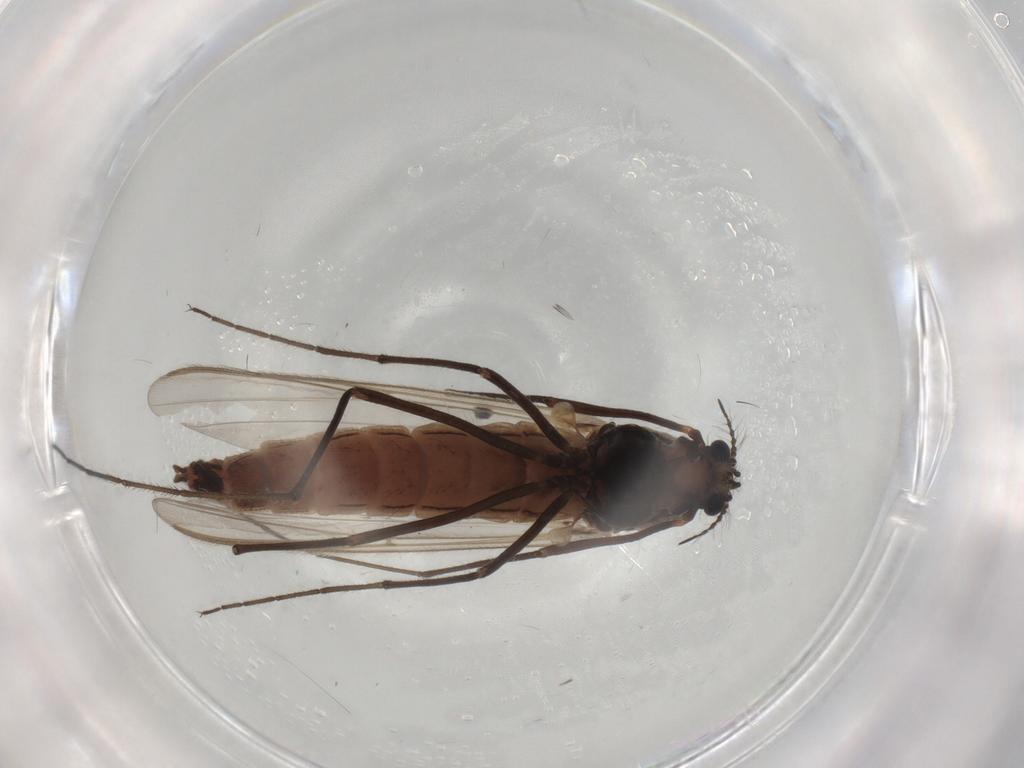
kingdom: Animalia
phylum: Arthropoda
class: Insecta
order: Diptera
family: Chironomidae
